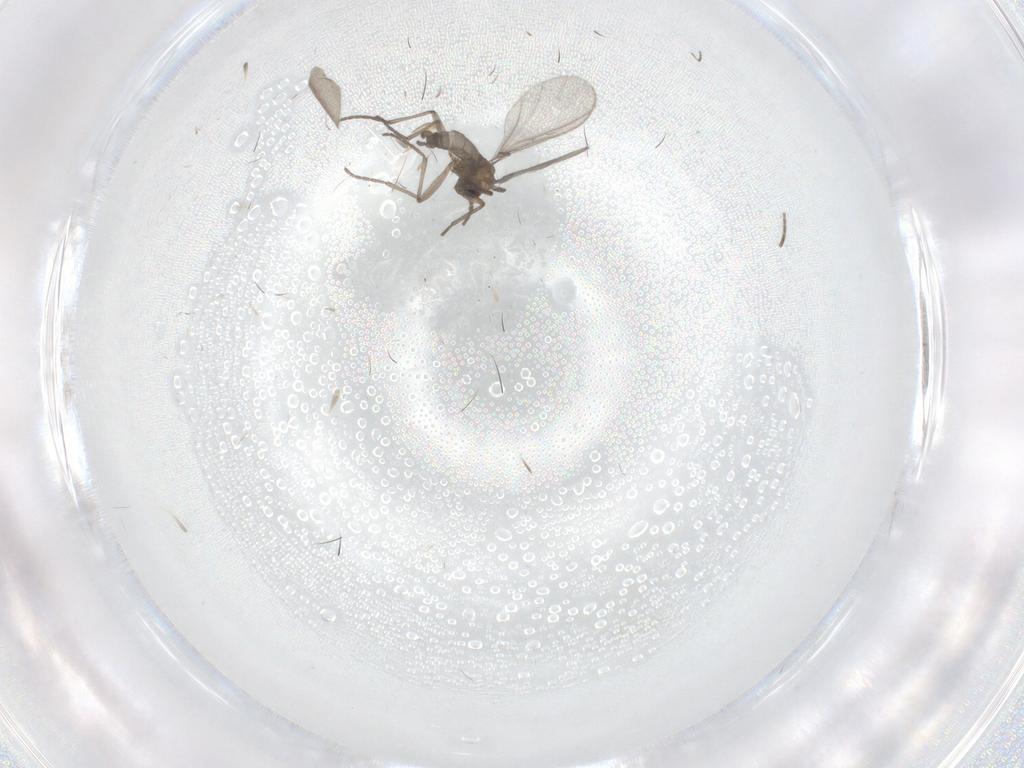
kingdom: Animalia
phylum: Arthropoda
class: Insecta
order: Diptera
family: Sciaridae
